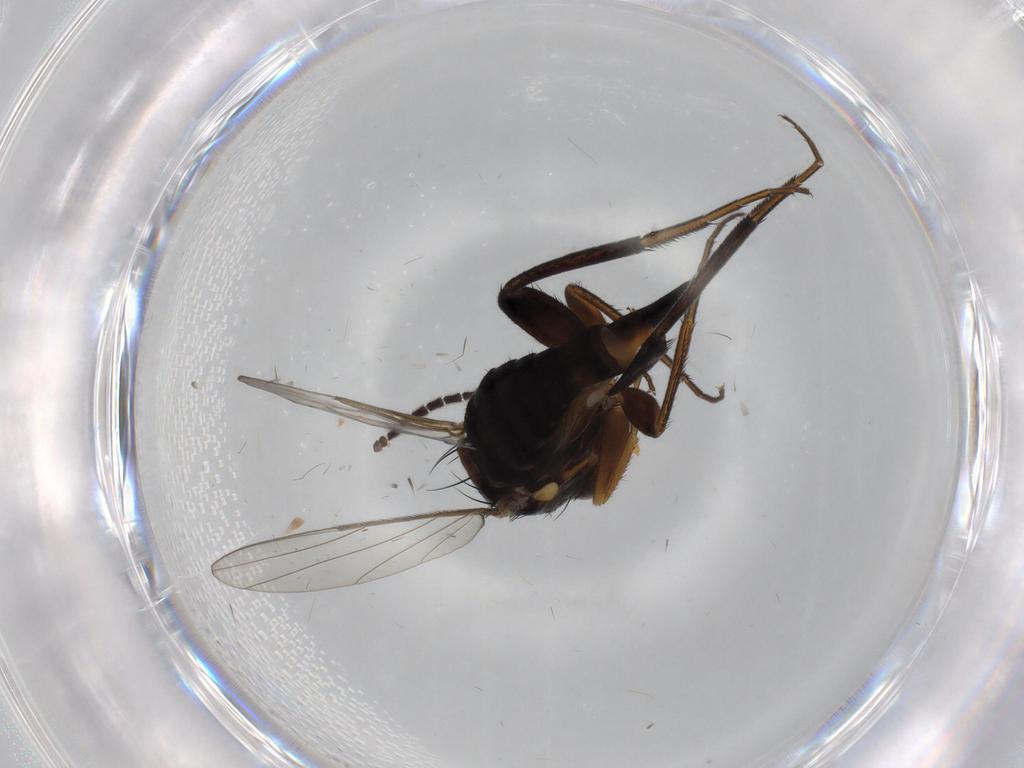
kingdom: Animalia
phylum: Arthropoda
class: Insecta
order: Diptera
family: Phoridae
